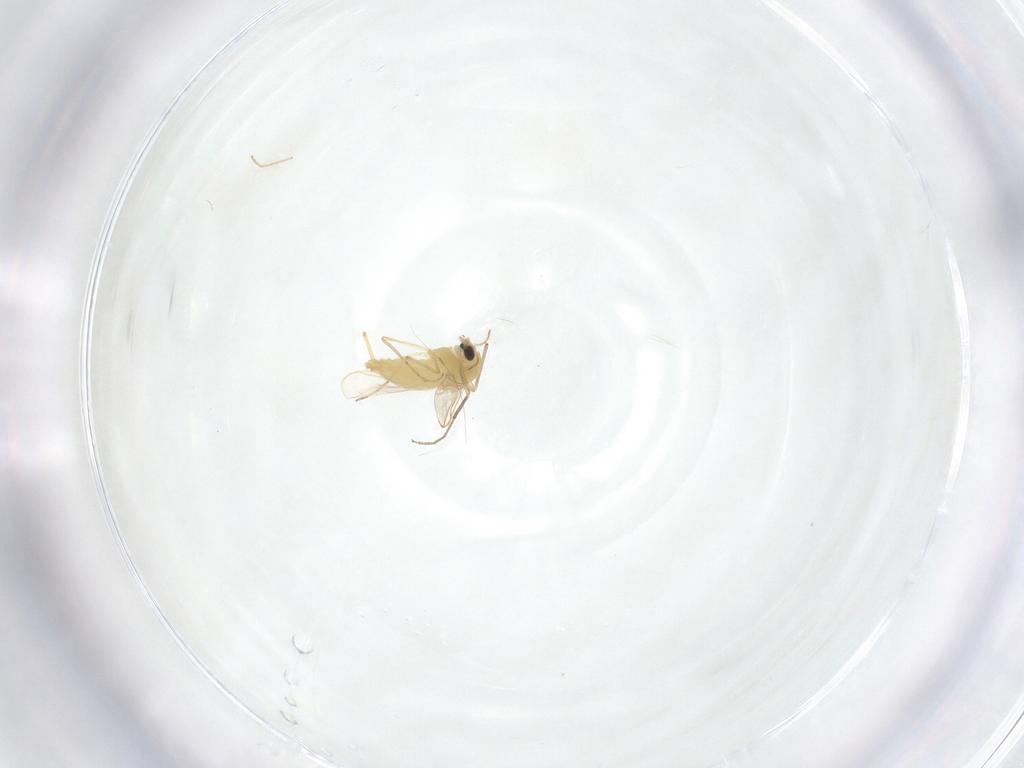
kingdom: Animalia
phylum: Arthropoda
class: Insecta
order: Diptera
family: Chironomidae
